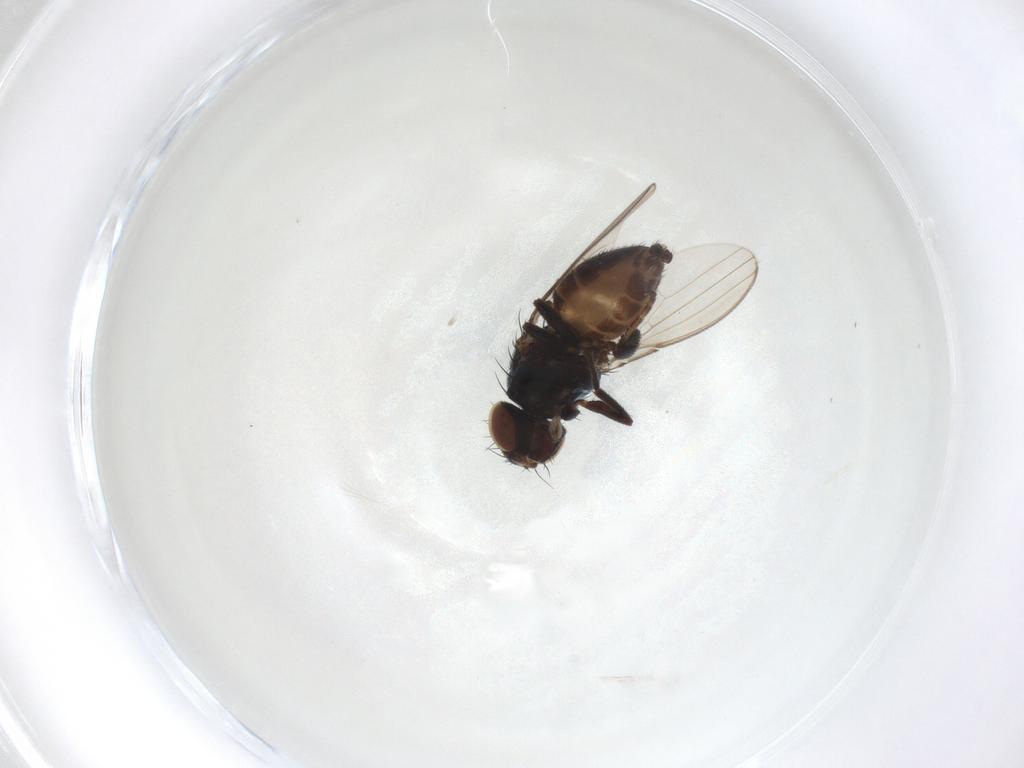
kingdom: Animalia
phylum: Arthropoda
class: Insecta
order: Diptera
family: Chloropidae
